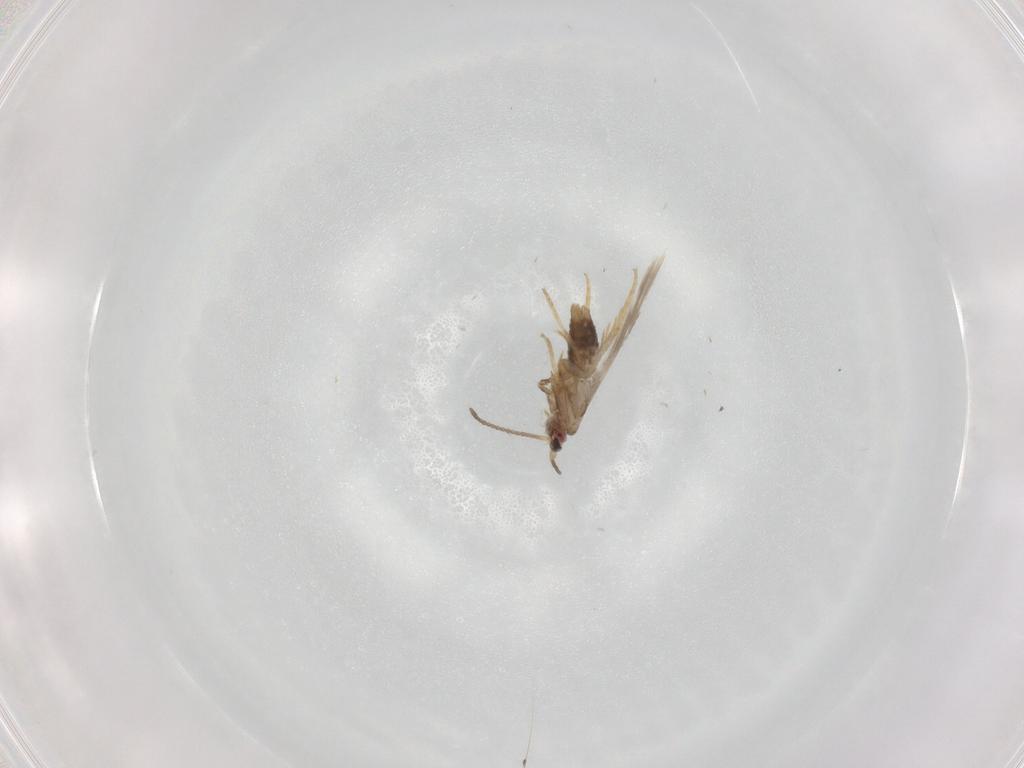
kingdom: Animalia
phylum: Arthropoda
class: Insecta
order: Lepidoptera
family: Nepticulidae
